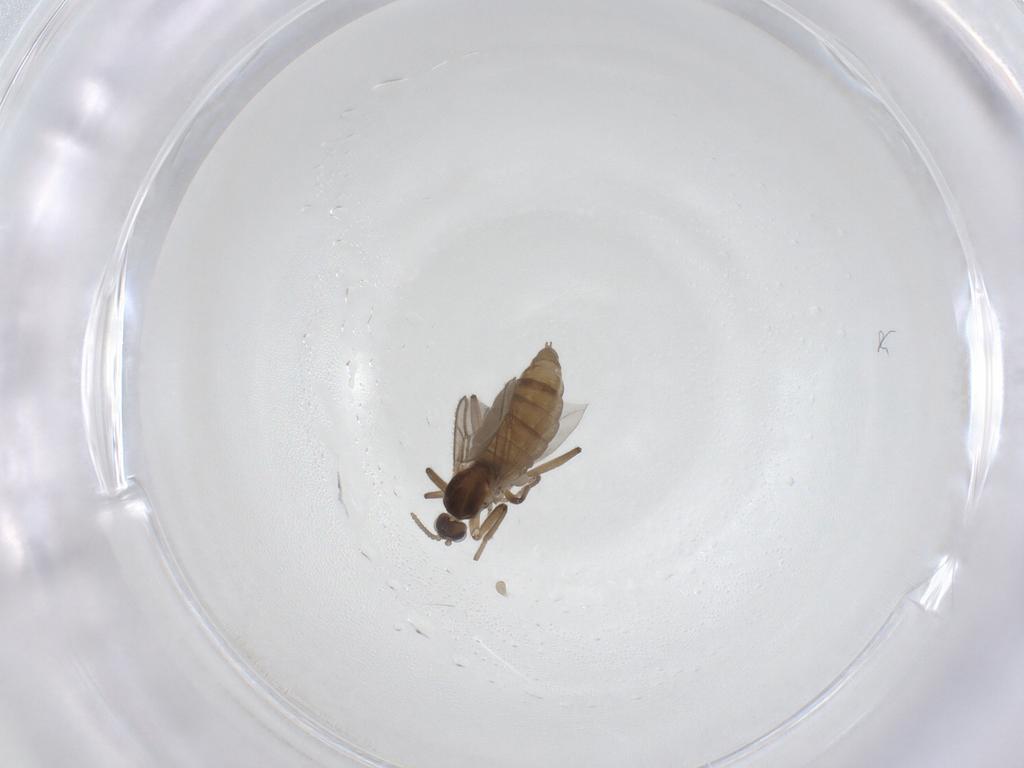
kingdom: Animalia
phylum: Arthropoda
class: Insecta
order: Diptera
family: Cecidomyiidae
